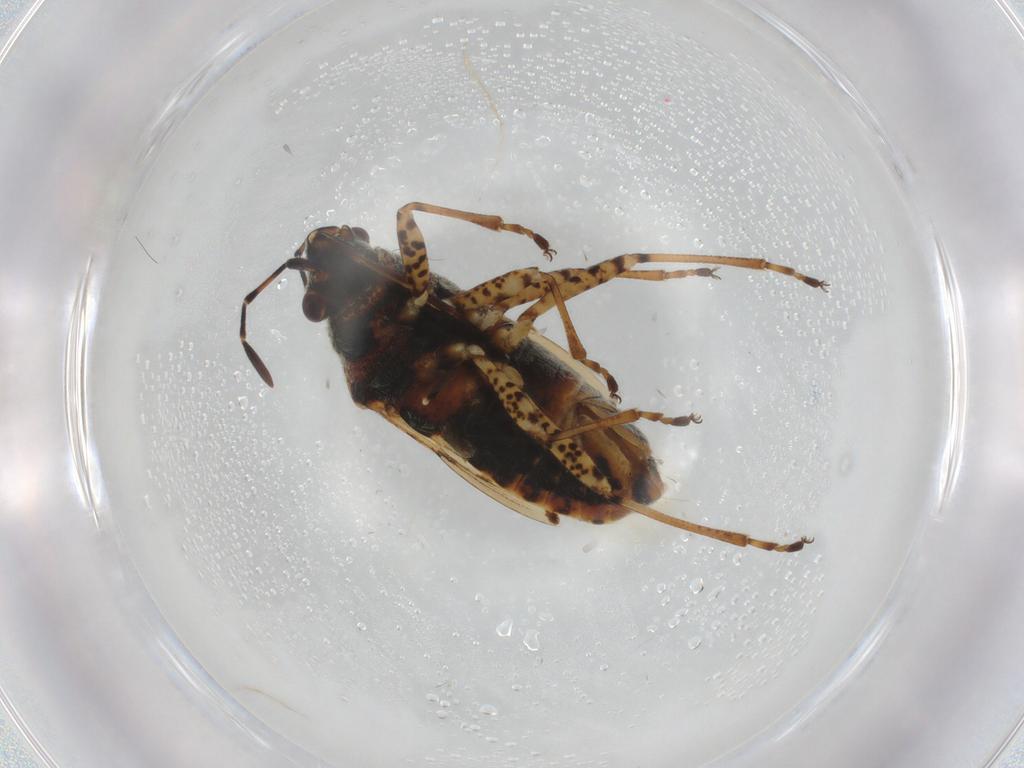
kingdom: Animalia
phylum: Arthropoda
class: Insecta
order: Hemiptera
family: Lygaeidae
